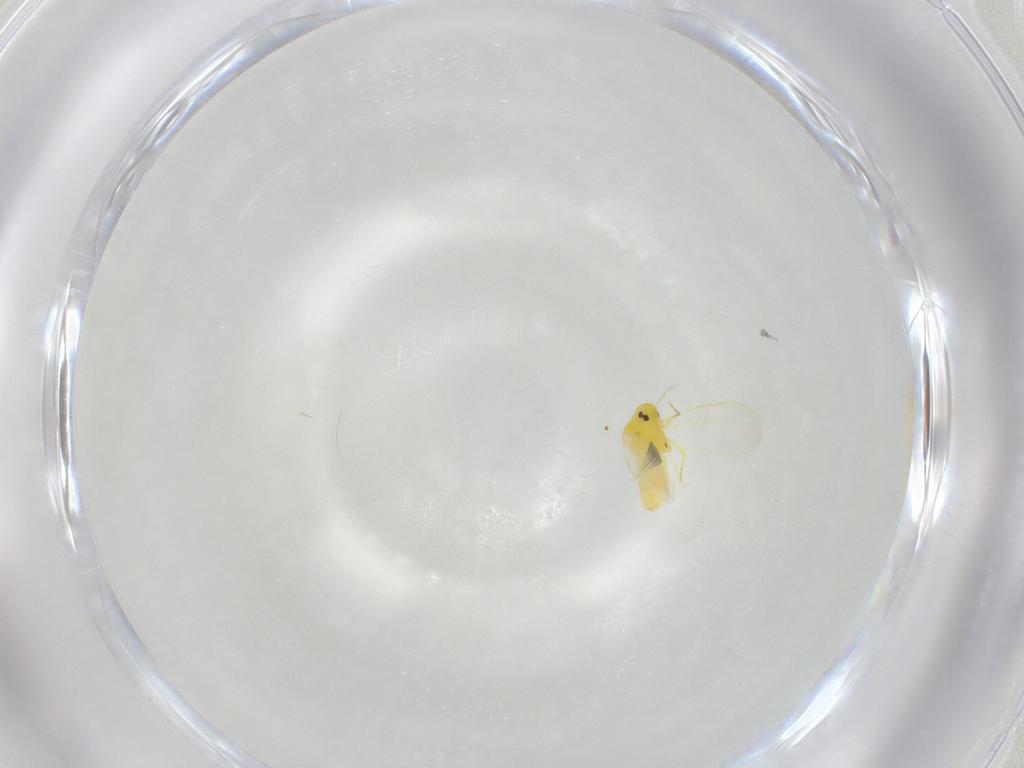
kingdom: Animalia
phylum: Arthropoda
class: Insecta
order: Hemiptera
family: Aleyrodidae
